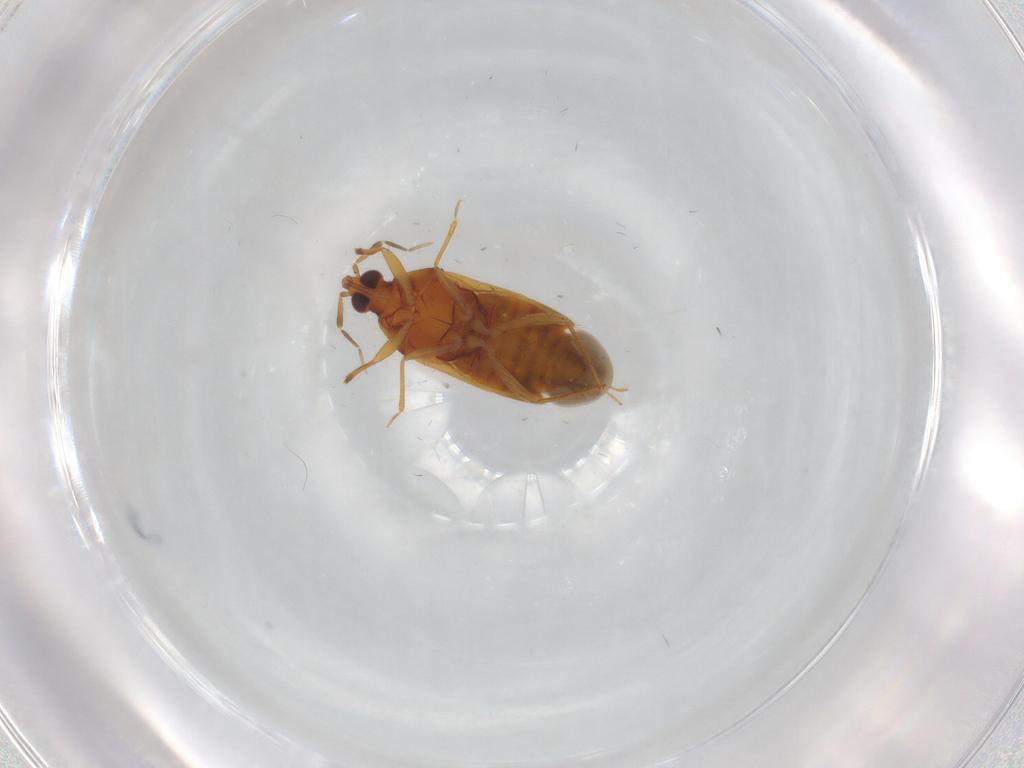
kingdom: Animalia
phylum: Arthropoda
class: Insecta
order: Hemiptera
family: Anthocoridae
